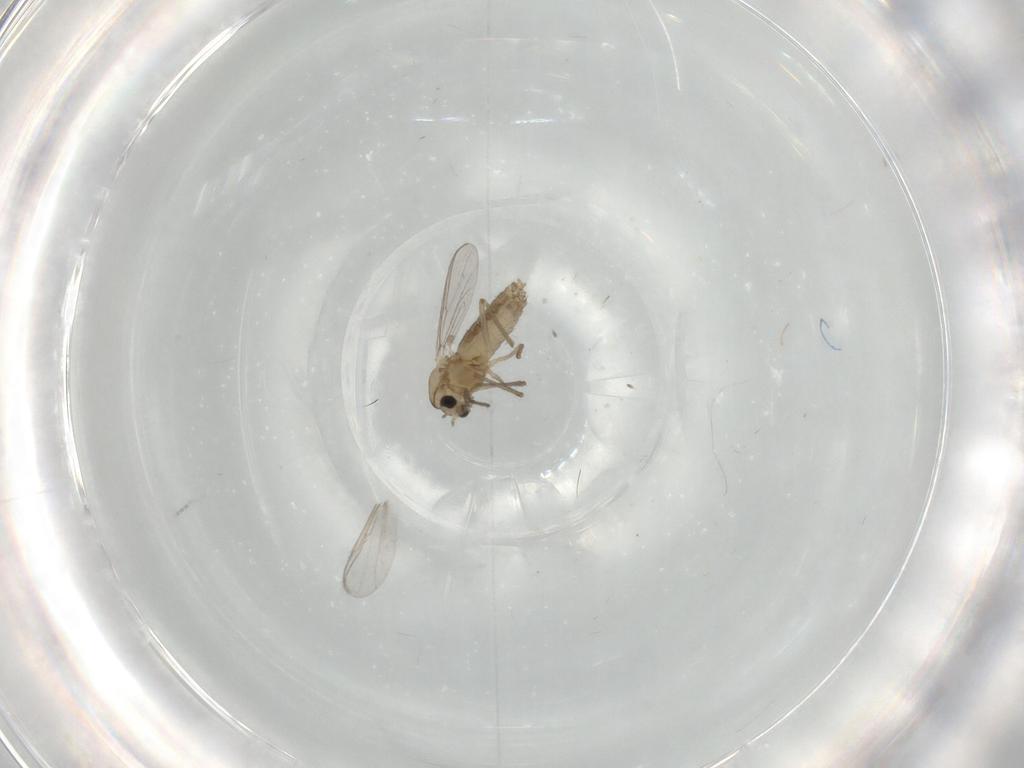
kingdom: Animalia
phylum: Arthropoda
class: Insecta
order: Diptera
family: Chironomidae
